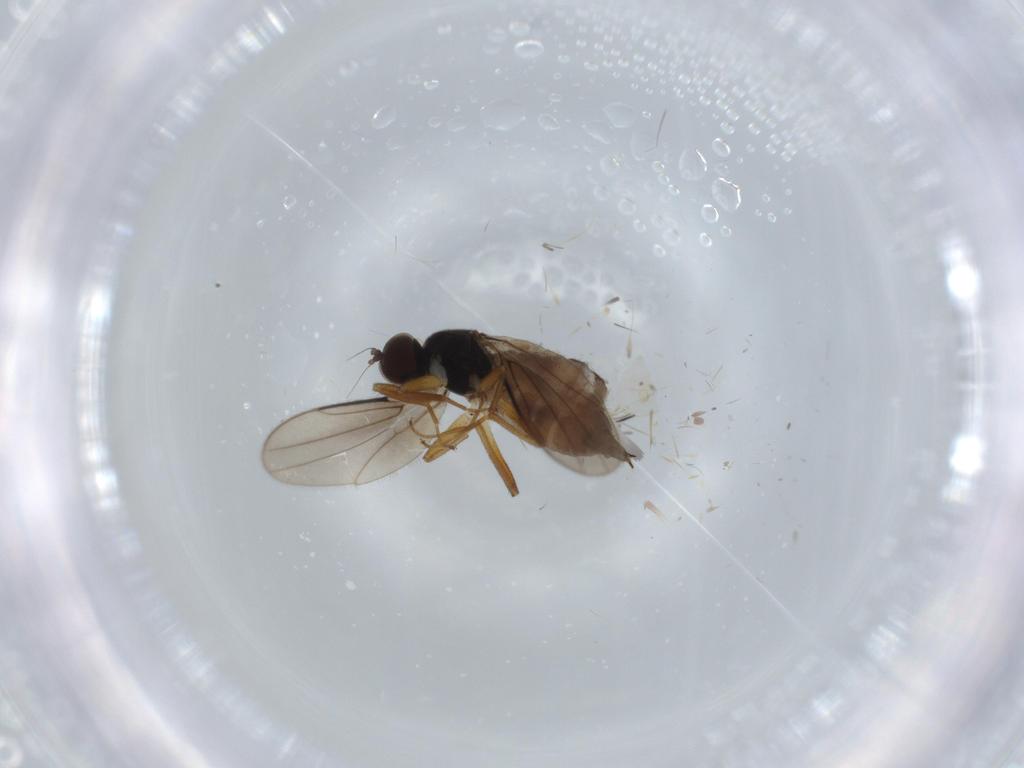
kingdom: Animalia
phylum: Arthropoda
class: Insecta
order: Diptera
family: Hybotidae
